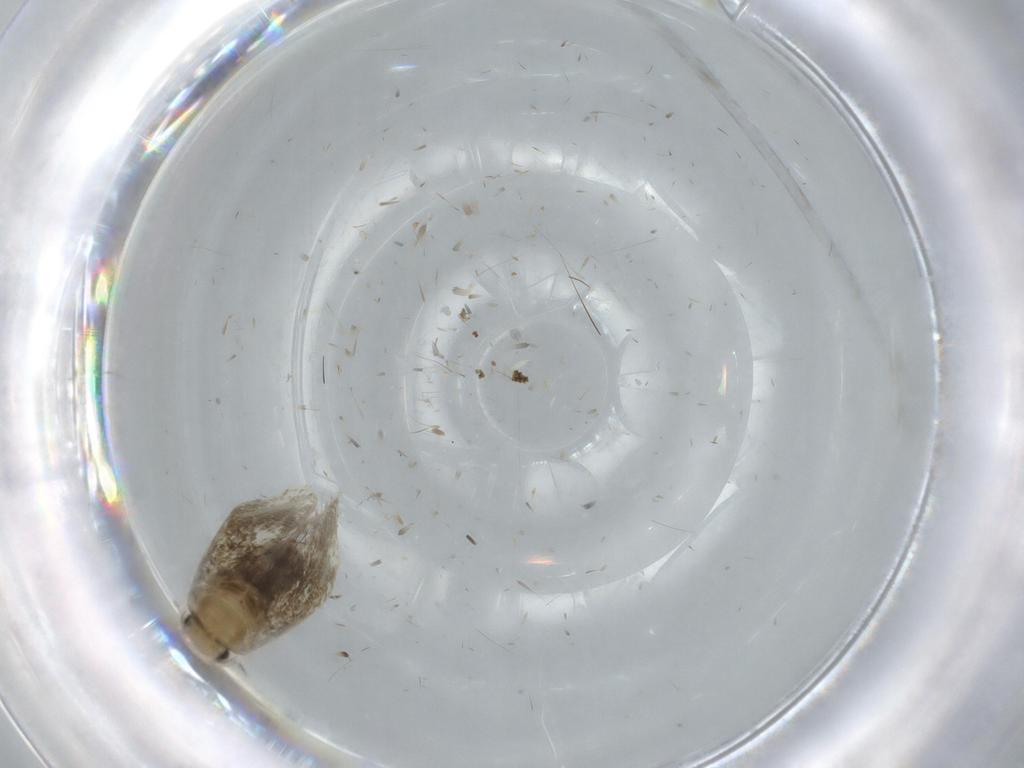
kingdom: Animalia
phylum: Arthropoda
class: Insecta
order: Lepidoptera
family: Tineidae
